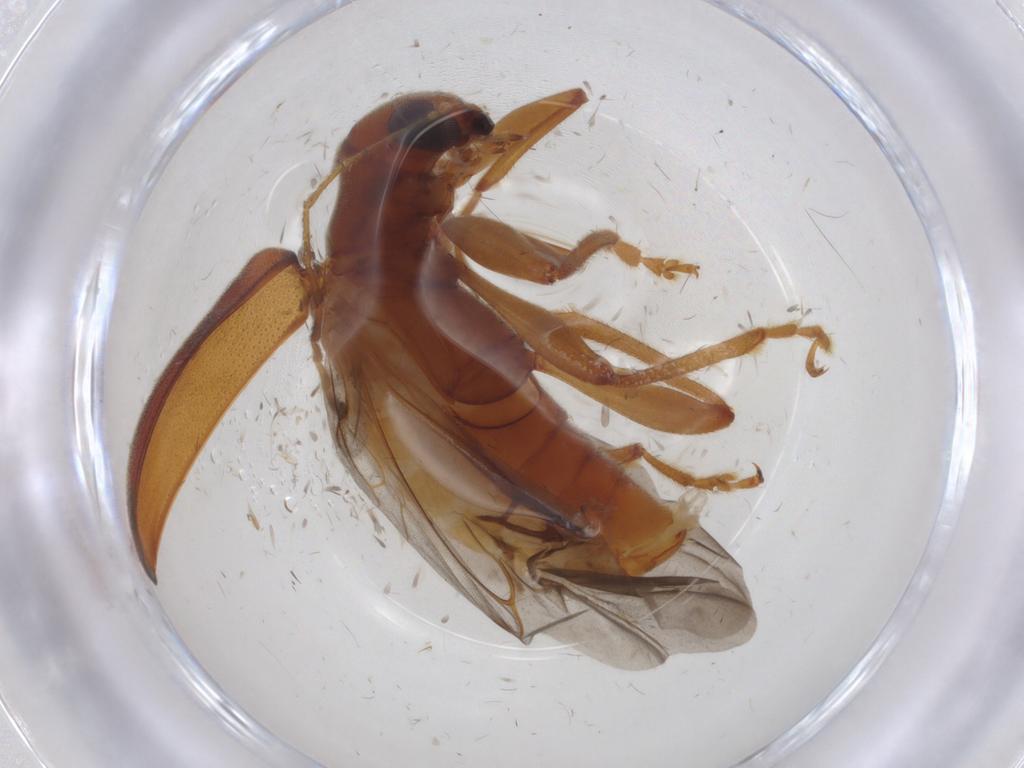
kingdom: Animalia
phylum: Arthropoda
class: Insecta
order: Coleoptera
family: Chrysomelidae
